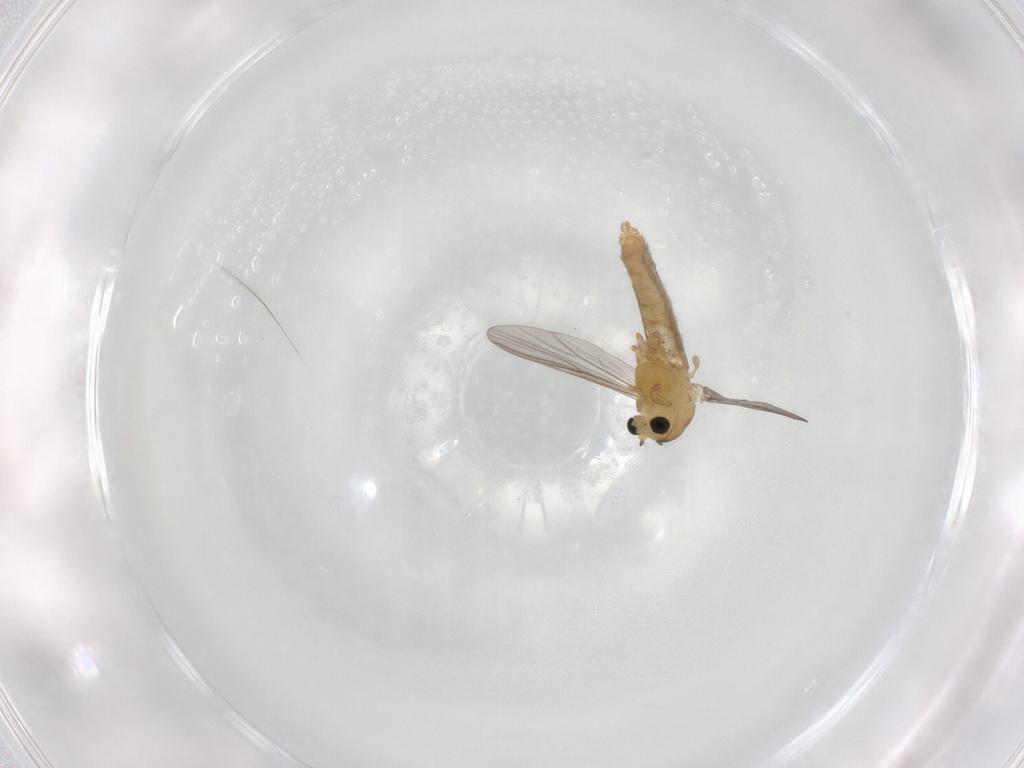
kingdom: Animalia
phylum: Arthropoda
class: Insecta
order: Diptera
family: Chironomidae
